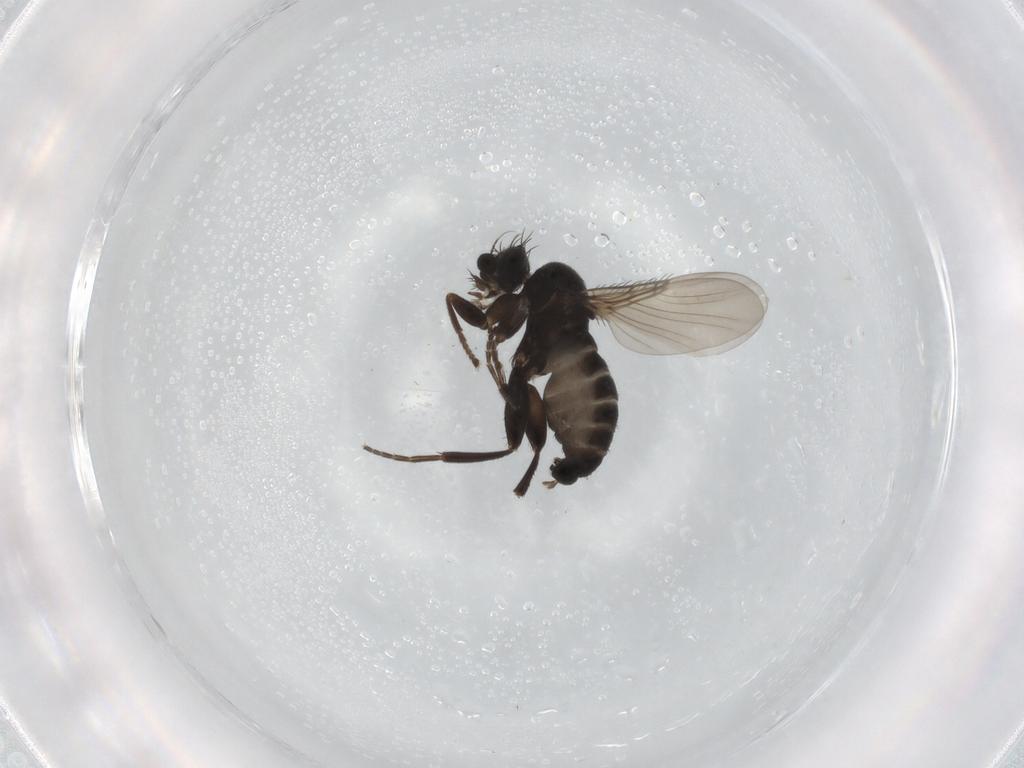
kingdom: Animalia
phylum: Arthropoda
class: Insecta
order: Diptera
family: Phoridae
